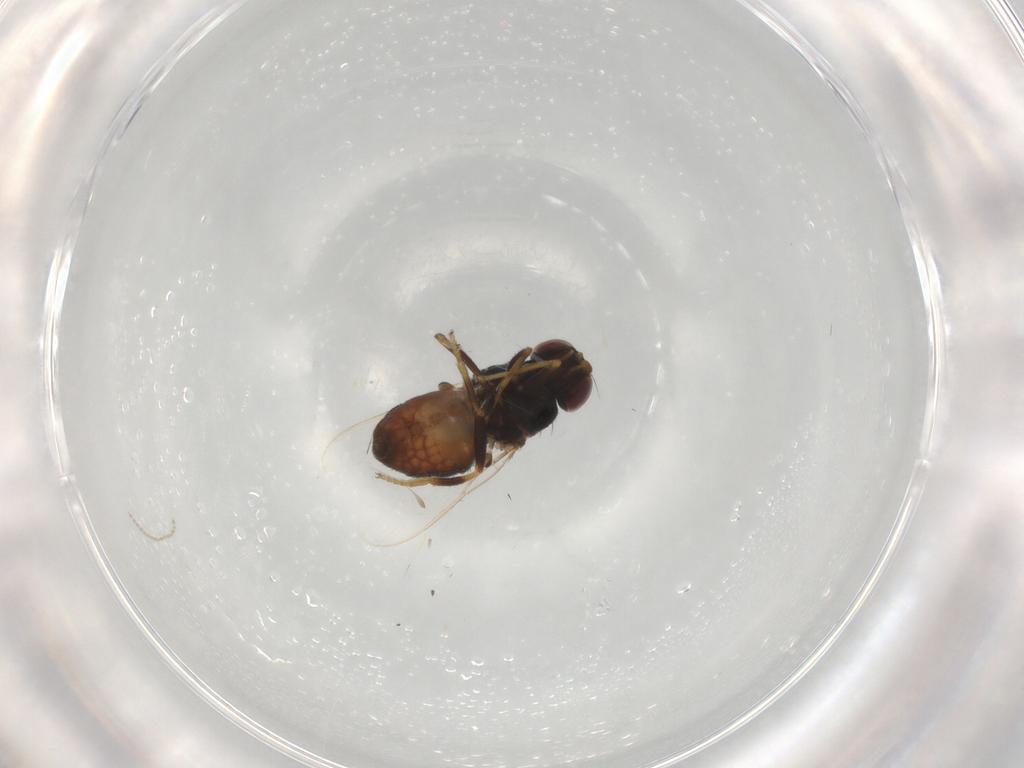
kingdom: Animalia
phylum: Arthropoda
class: Insecta
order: Diptera
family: Chloropidae
